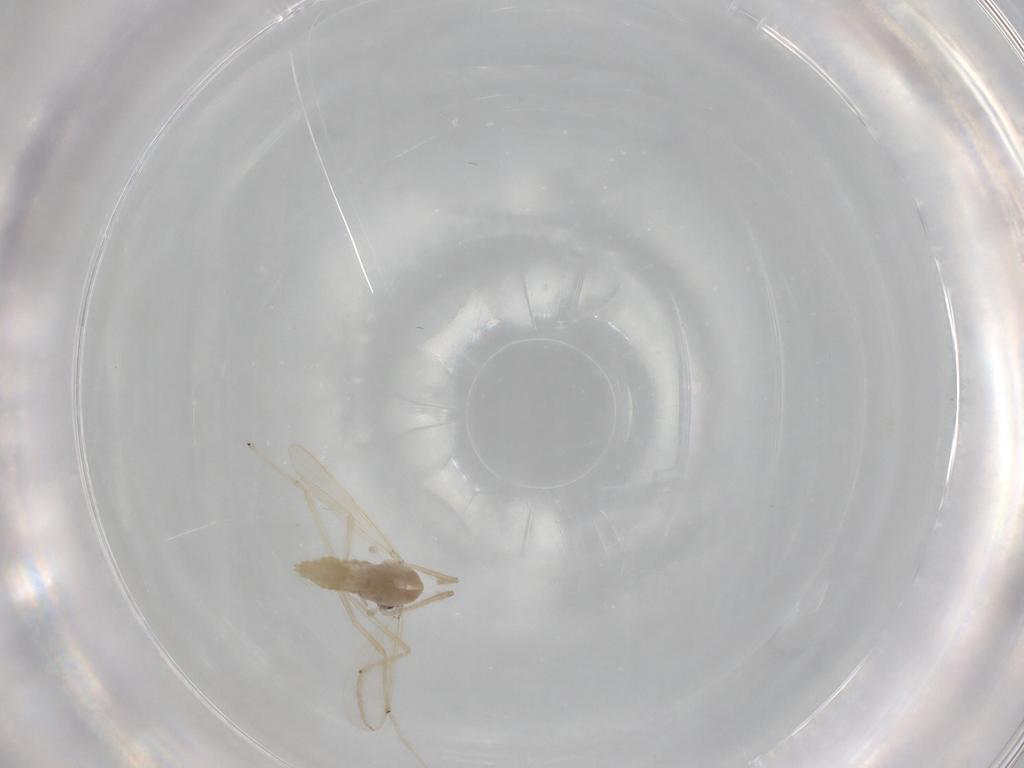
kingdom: Animalia
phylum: Arthropoda
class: Insecta
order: Diptera
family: Chironomidae
